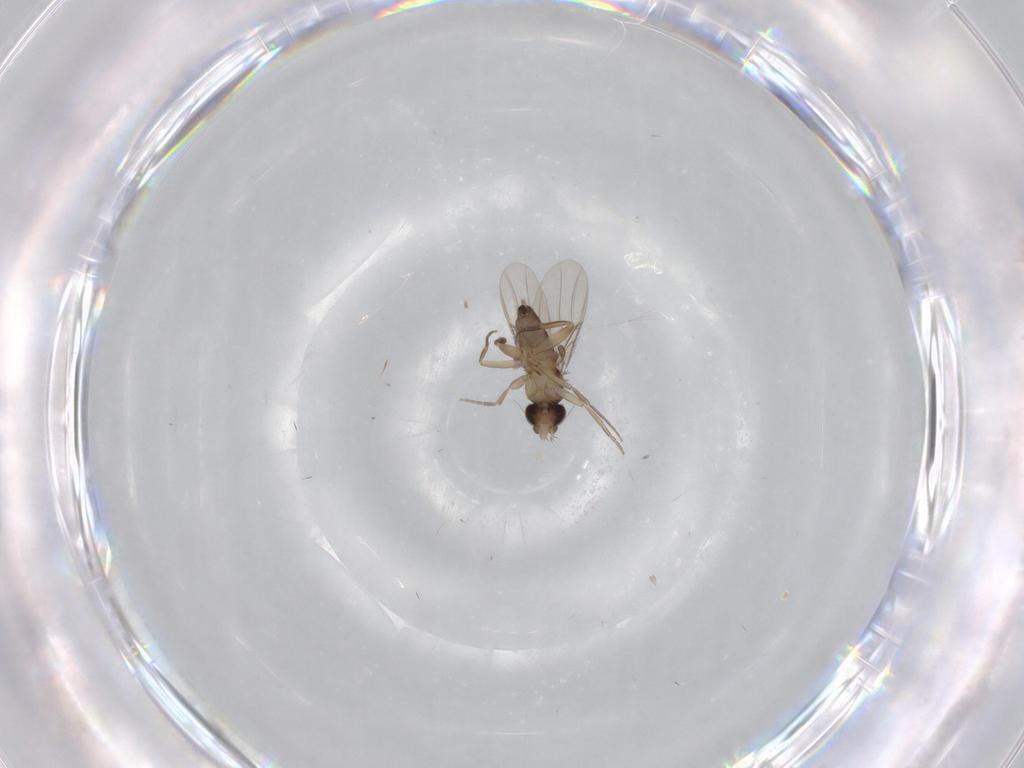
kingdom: Animalia
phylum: Arthropoda
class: Insecta
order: Diptera
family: Phoridae
